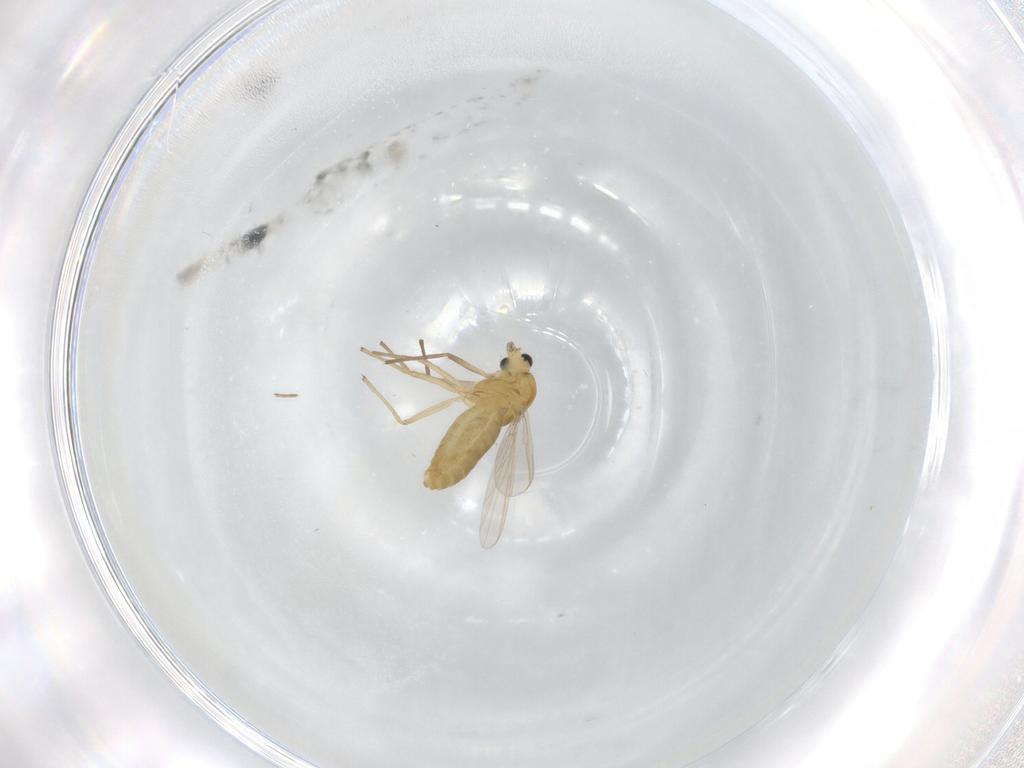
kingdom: Animalia
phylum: Arthropoda
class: Insecta
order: Diptera
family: Chironomidae
